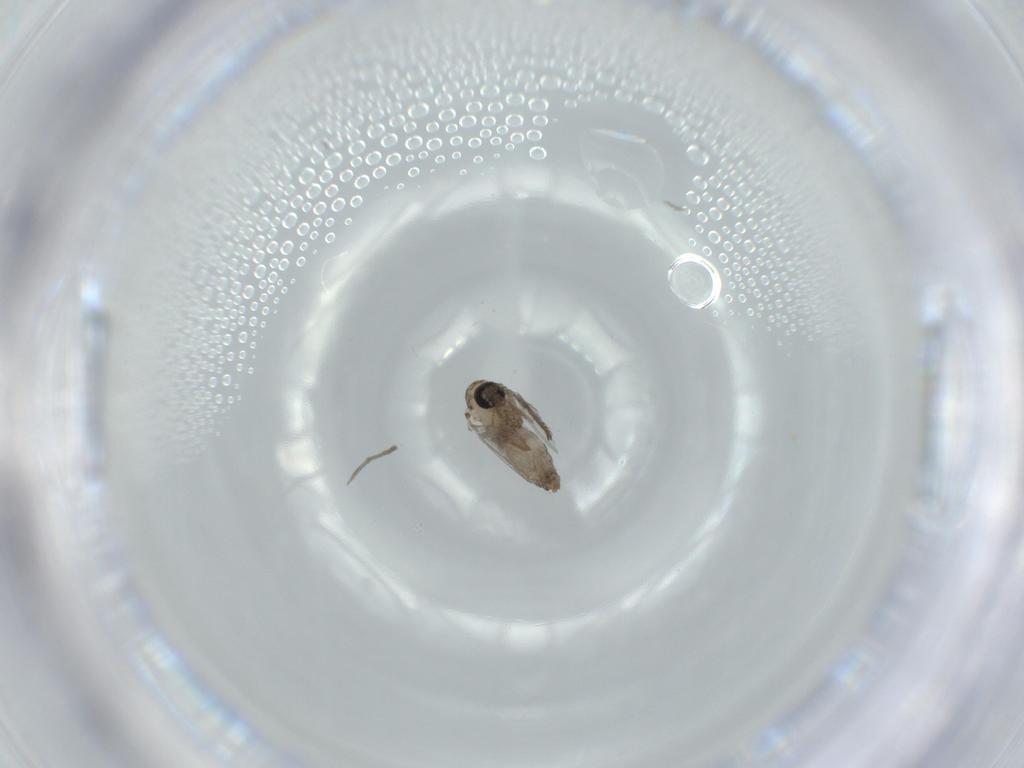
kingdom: Animalia
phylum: Arthropoda
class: Insecta
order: Diptera
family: Psychodidae
